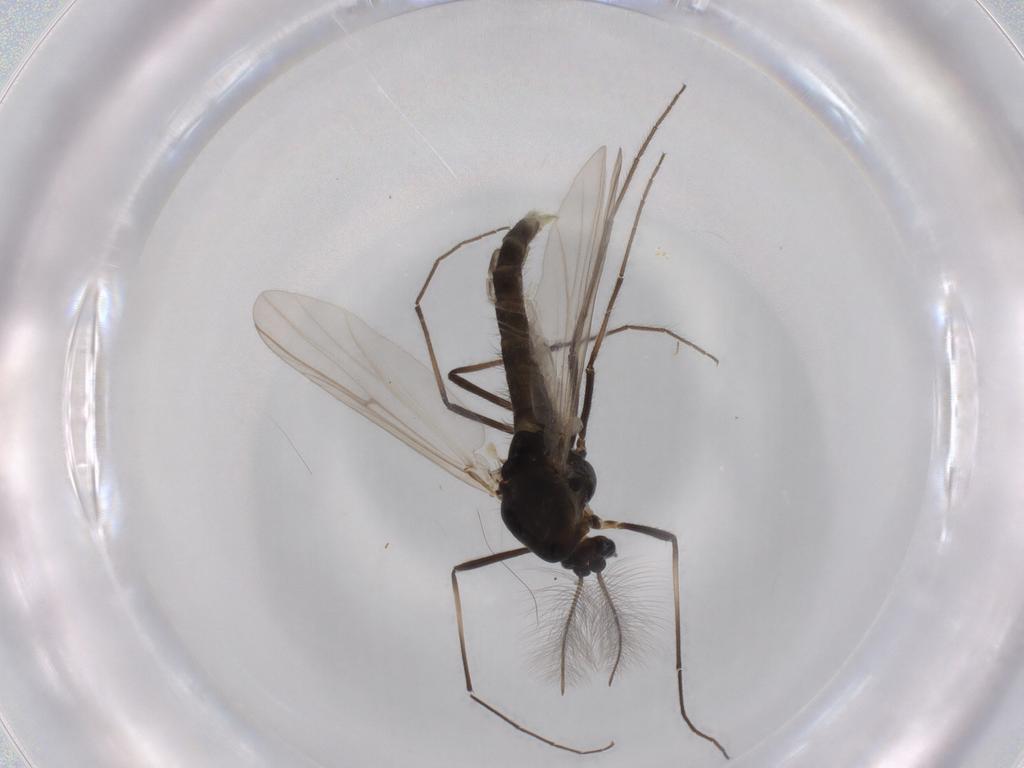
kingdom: Animalia
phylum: Arthropoda
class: Insecta
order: Diptera
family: Chironomidae
